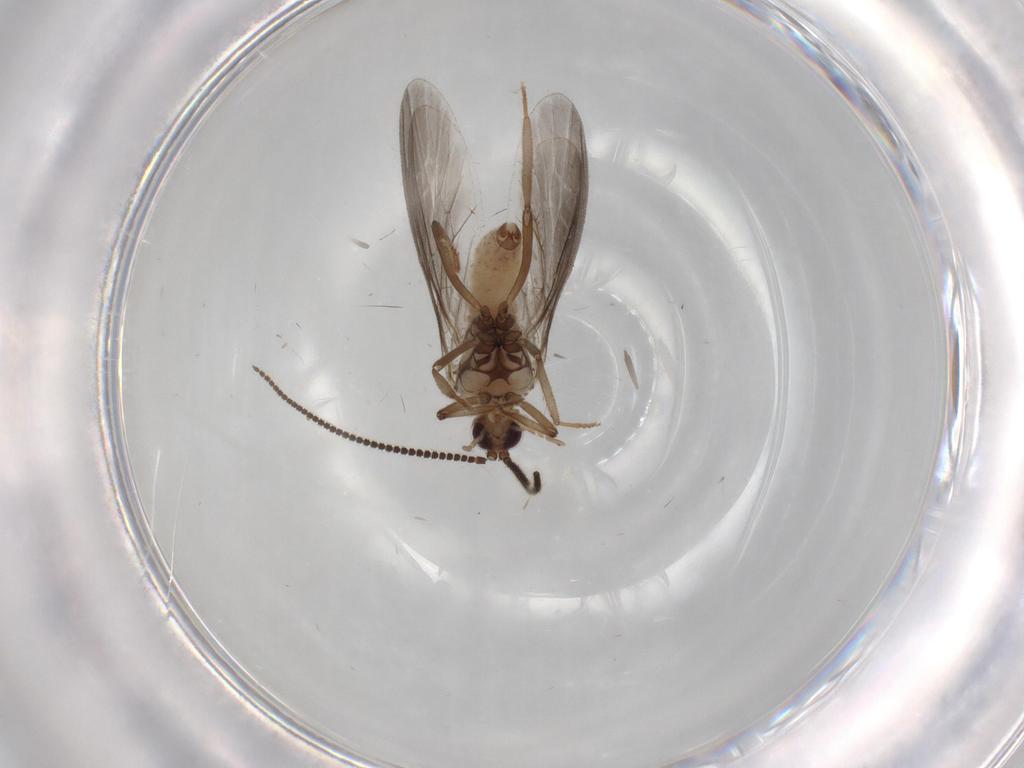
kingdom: Animalia
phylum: Arthropoda
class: Insecta
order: Neuroptera
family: Coniopterygidae
